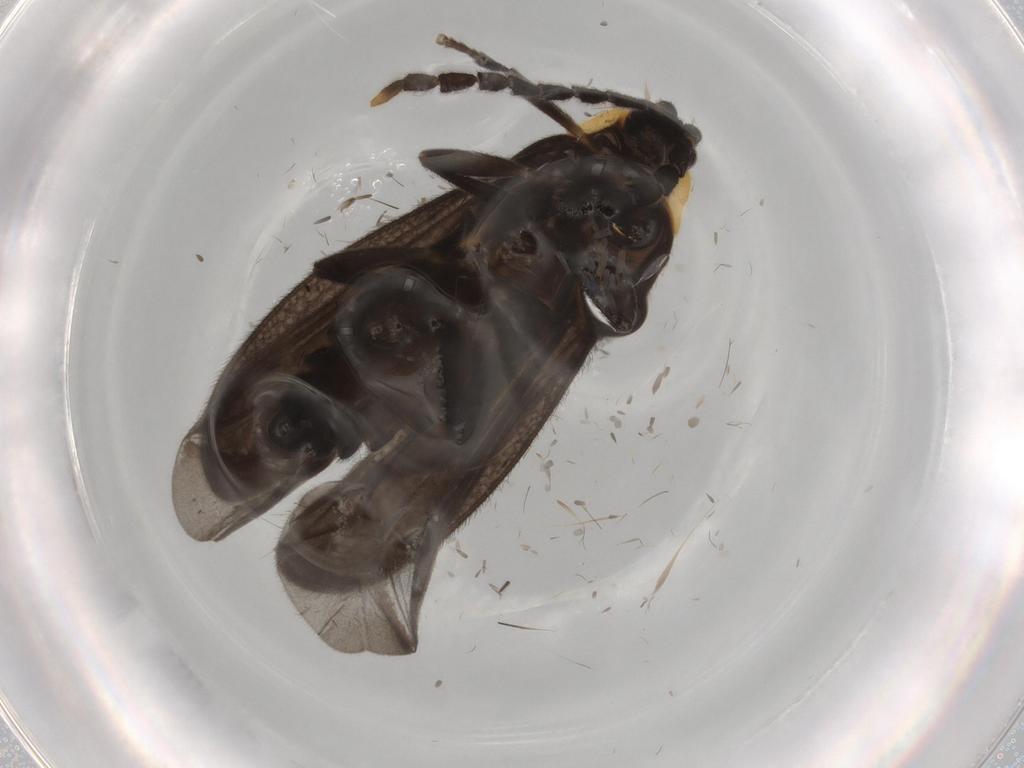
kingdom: Animalia
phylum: Arthropoda
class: Insecta
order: Coleoptera
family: Lycidae
